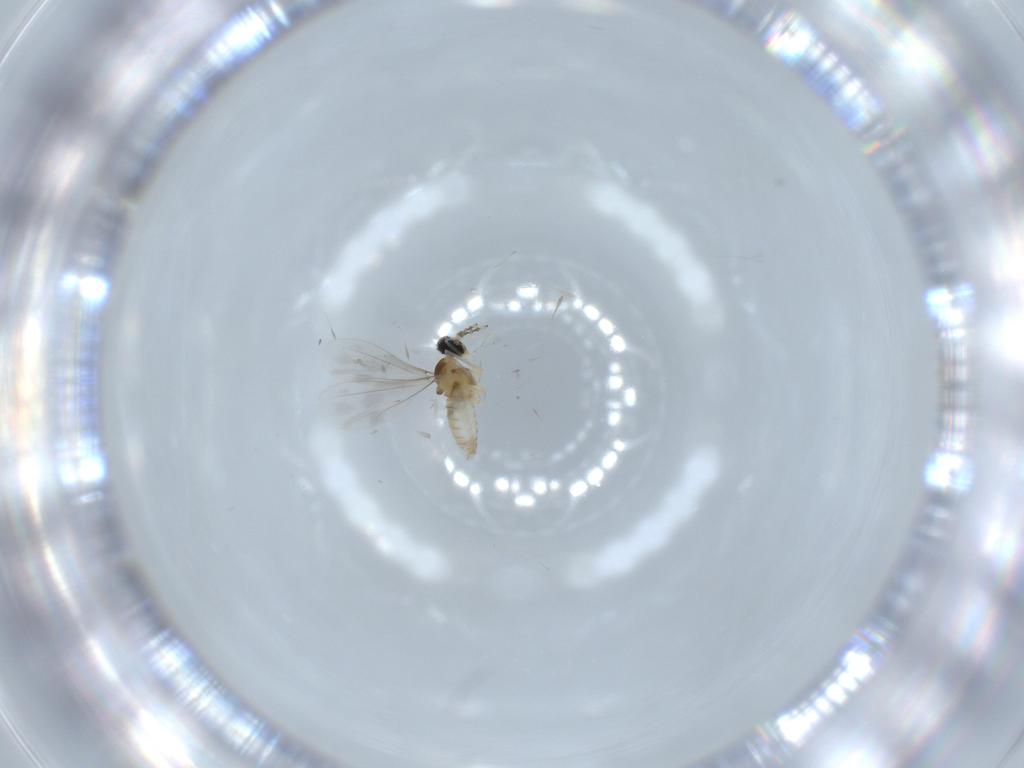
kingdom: Animalia
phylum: Arthropoda
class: Insecta
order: Diptera
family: Cecidomyiidae
